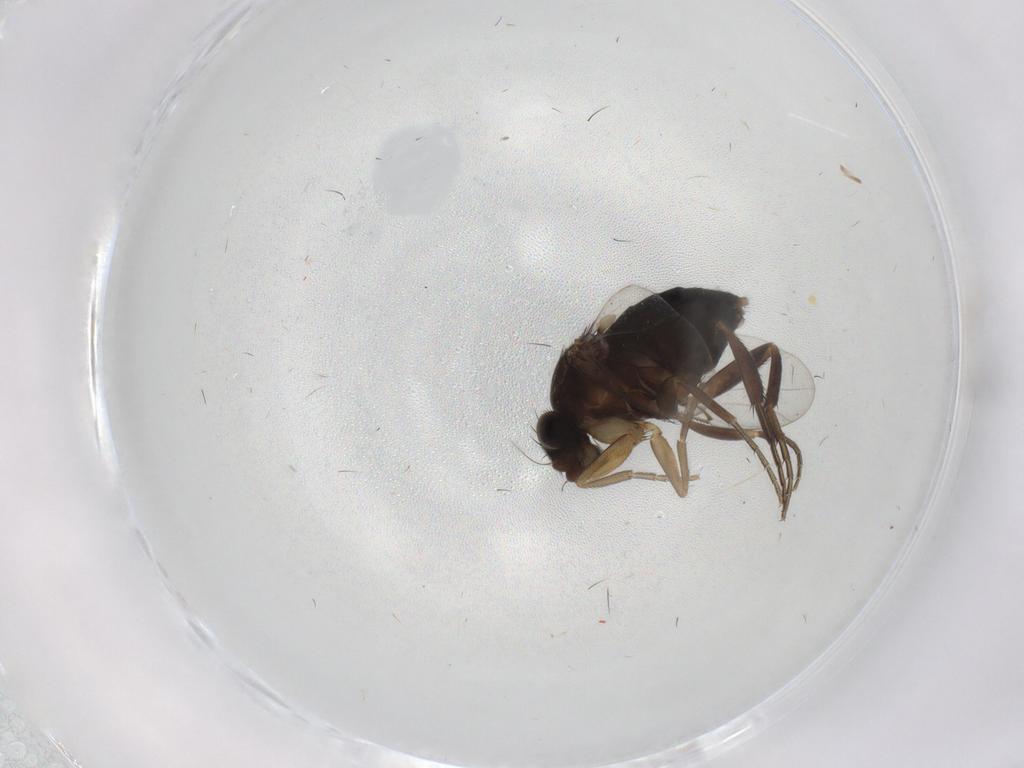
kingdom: Animalia
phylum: Arthropoda
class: Insecta
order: Diptera
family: Phoridae
